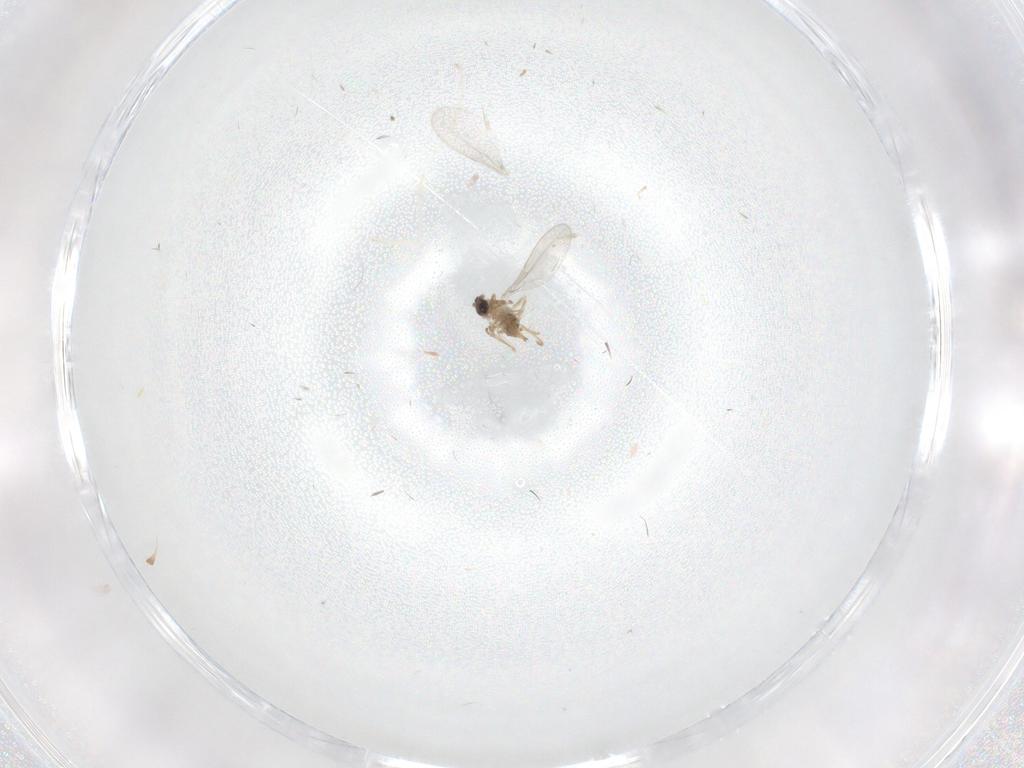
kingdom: Animalia
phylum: Arthropoda
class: Insecta
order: Diptera
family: Cecidomyiidae
